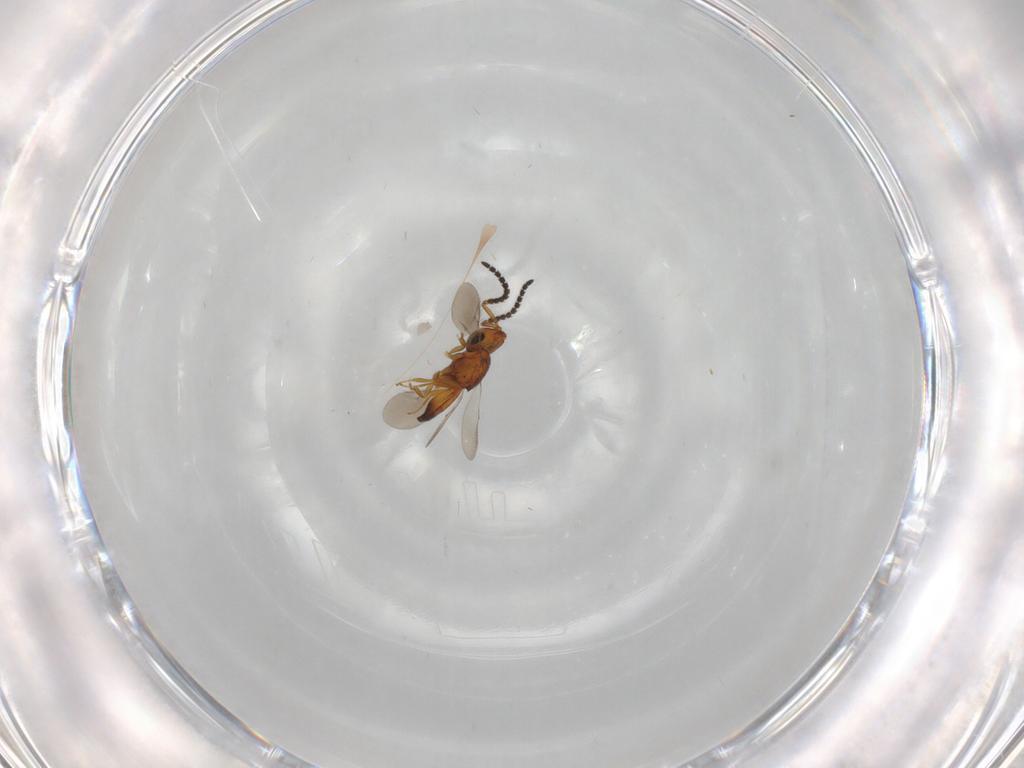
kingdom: Animalia
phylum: Arthropoda
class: Insecta
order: Hymenoptera
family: Scelionidae
